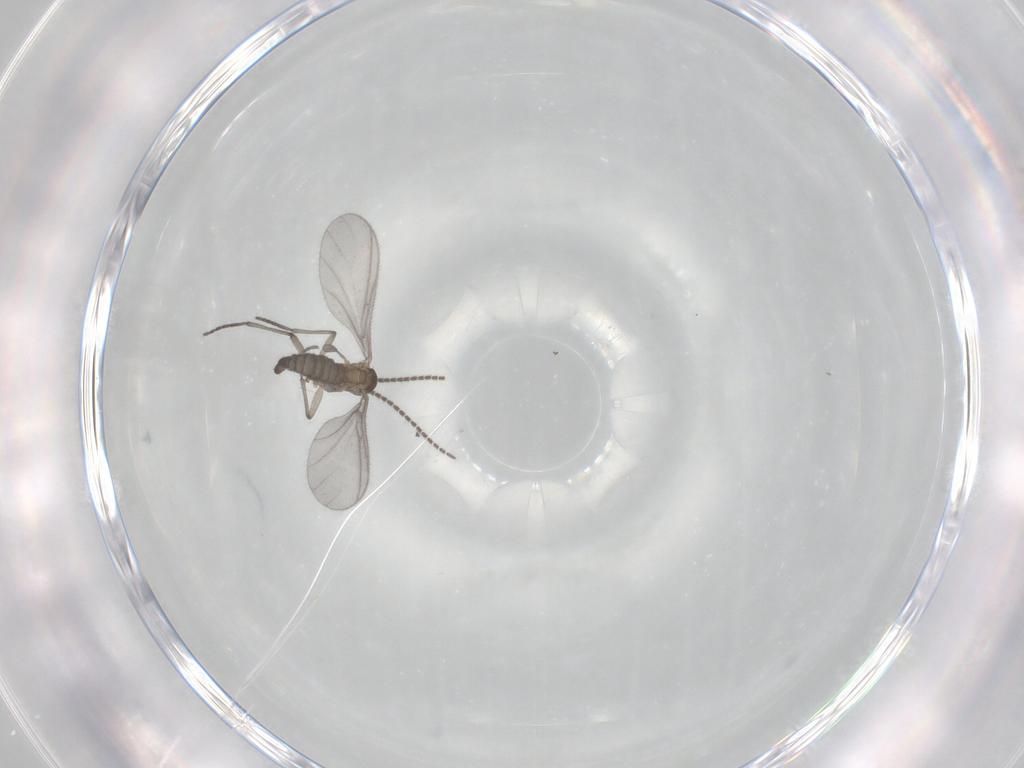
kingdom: Animalia
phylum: Arthropoda
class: Insecta
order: Diptera
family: Sciaridae
